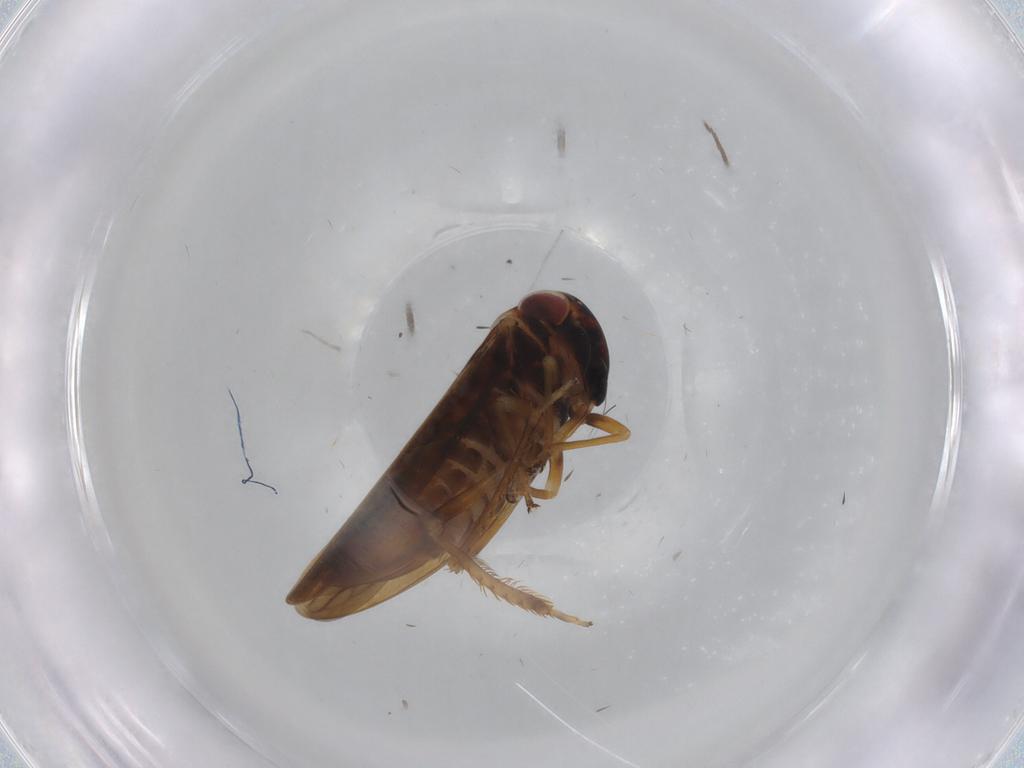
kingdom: Animalia
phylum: Arthropoda
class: Insecta
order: Hemiptera
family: Cicadellidae
